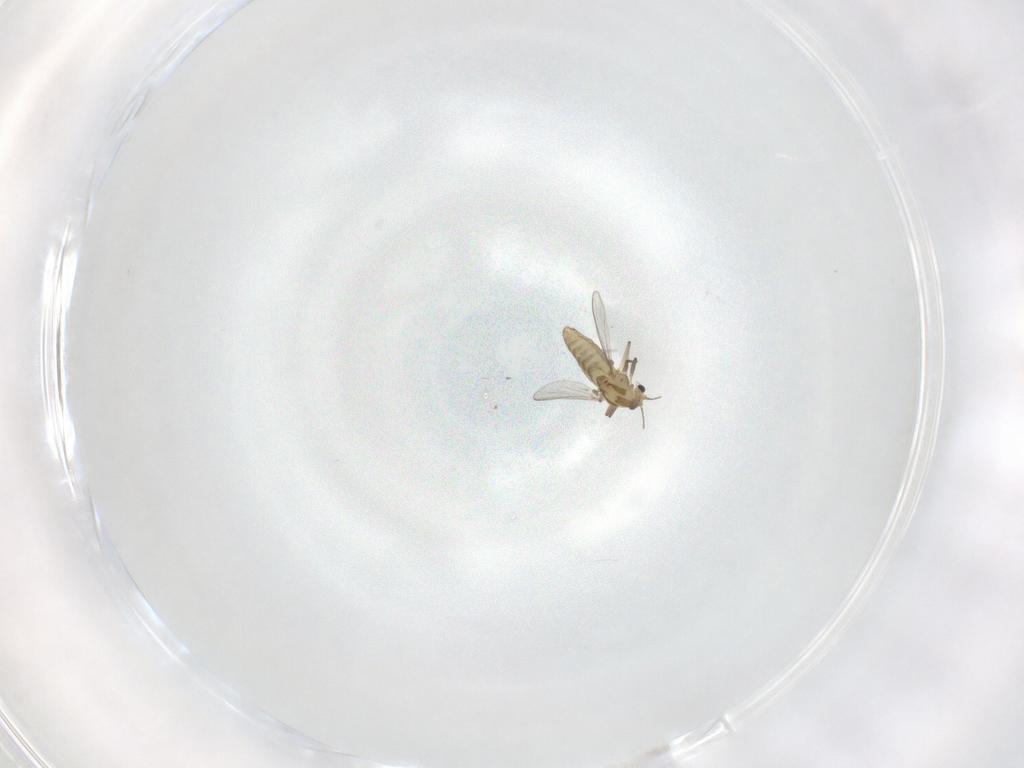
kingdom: Animalia
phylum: Arthropoda
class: Insecta
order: Diptera
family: Chironomidae
